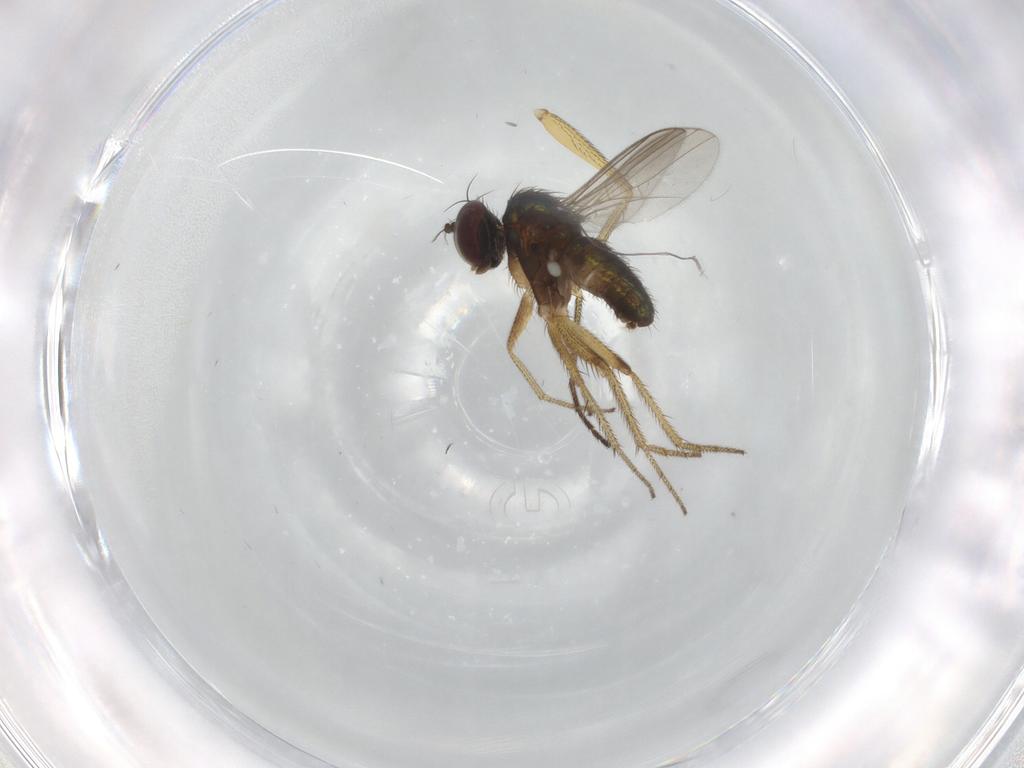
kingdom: Animalia
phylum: Arthropoda
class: Insecta
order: Diptera
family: Dolichopodidae
